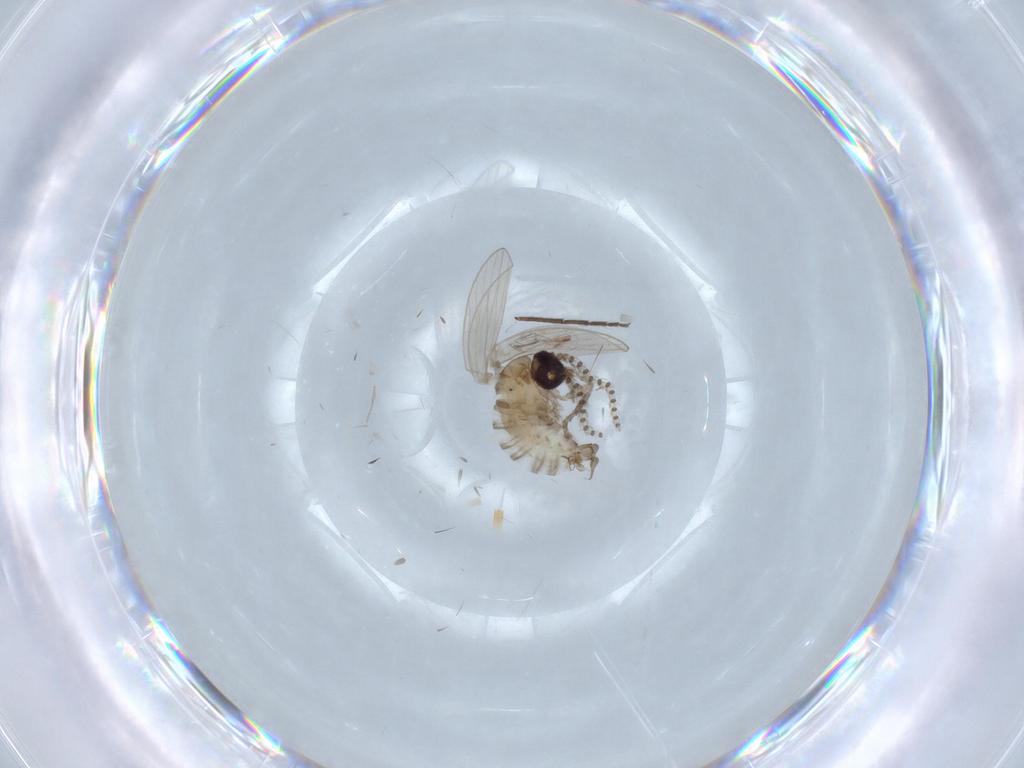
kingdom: Animalia
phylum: Arthropoda
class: Insecta
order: Diptera
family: Psychodidae
